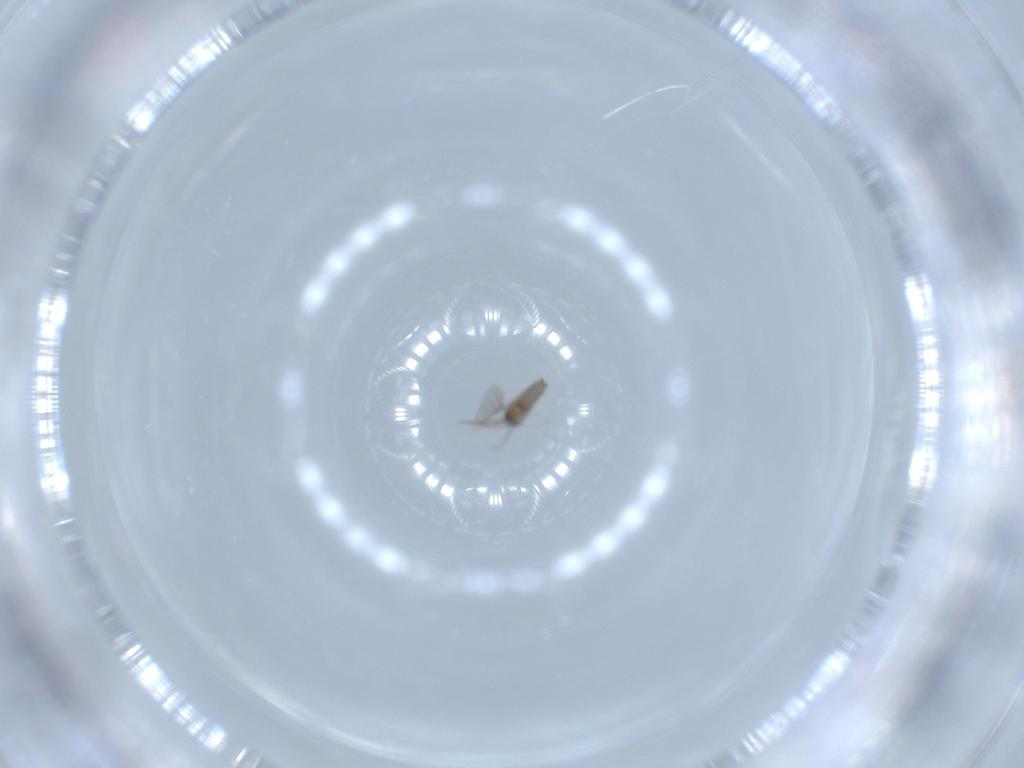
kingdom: Animalia
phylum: Arthropoda
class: Insecta
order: Diptera
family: Cecidomyiidae
